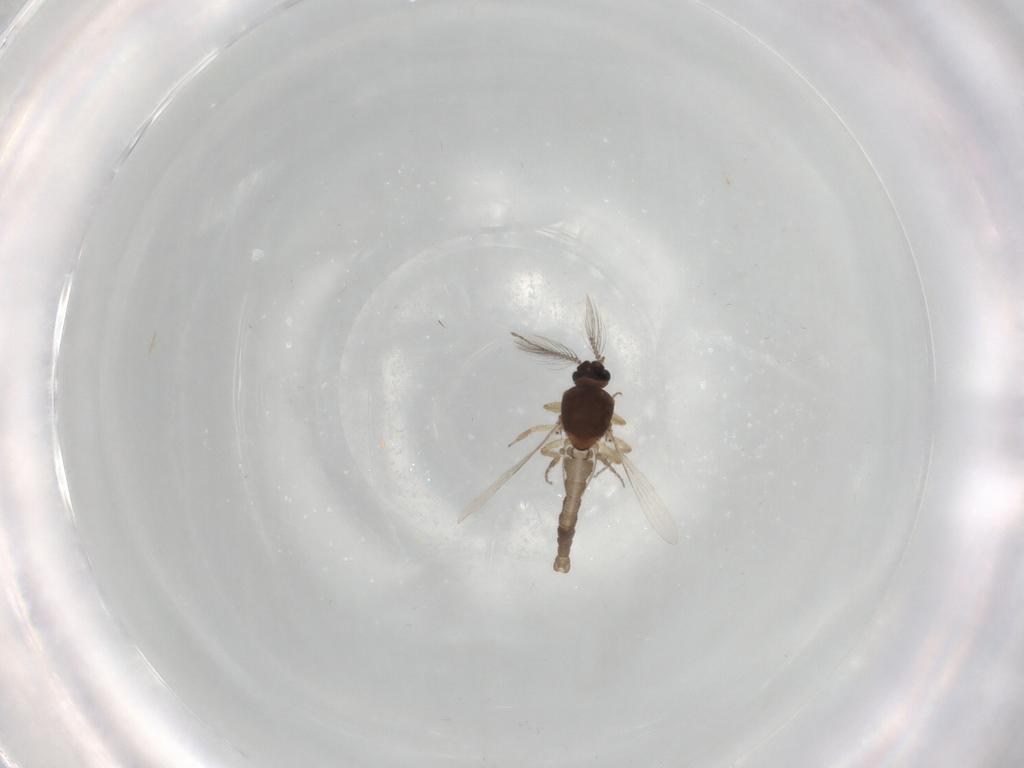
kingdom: Animalia
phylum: Arthropoda
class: Insecta
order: Diptera
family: Ceratopogonidae
